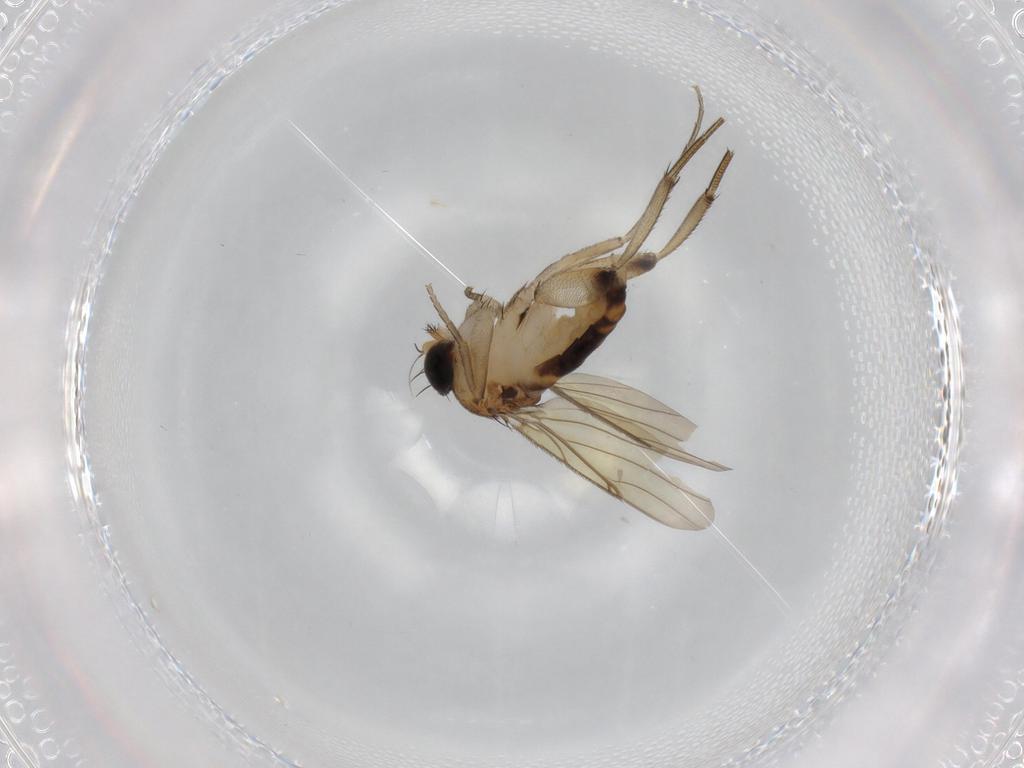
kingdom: Animalia
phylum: Arthropoda
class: Insecta
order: Diptera
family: Phoridae
